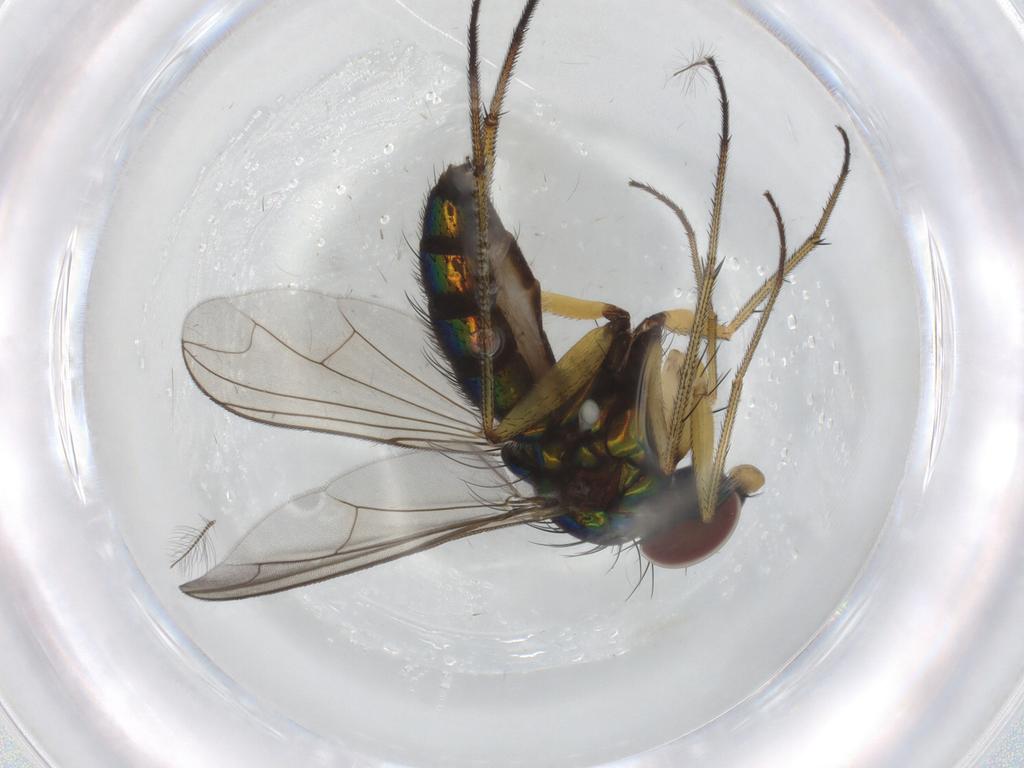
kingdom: Animalia
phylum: Arthropoda
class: Insecta
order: Diptera
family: Dolichopodidae
